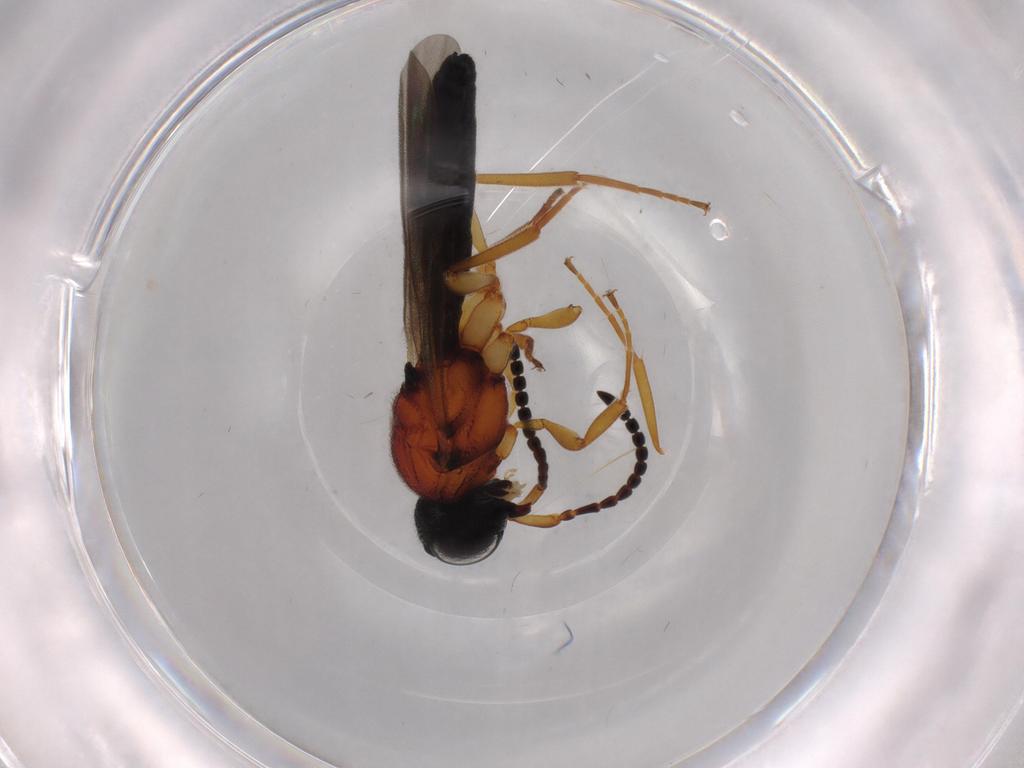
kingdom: Animalia
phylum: Arthropoda
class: Insecta
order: Hymenoptera
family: Scelionidae
